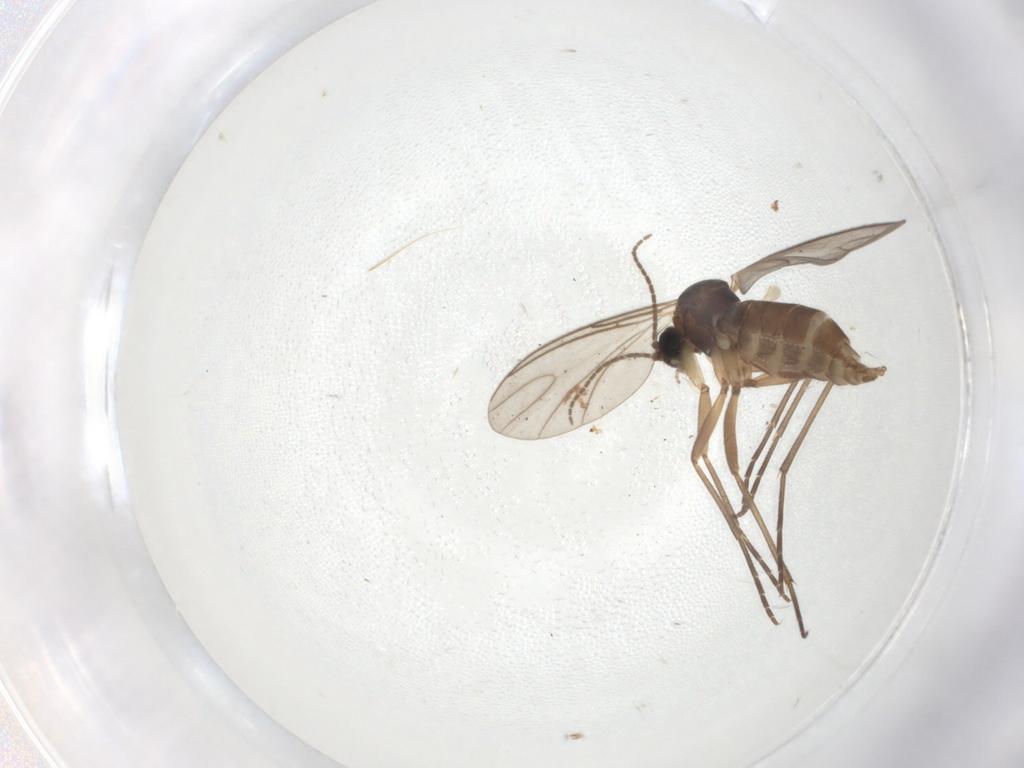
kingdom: Animalia
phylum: Arthropoda
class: Insecta
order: Diptera
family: Sciaridae
